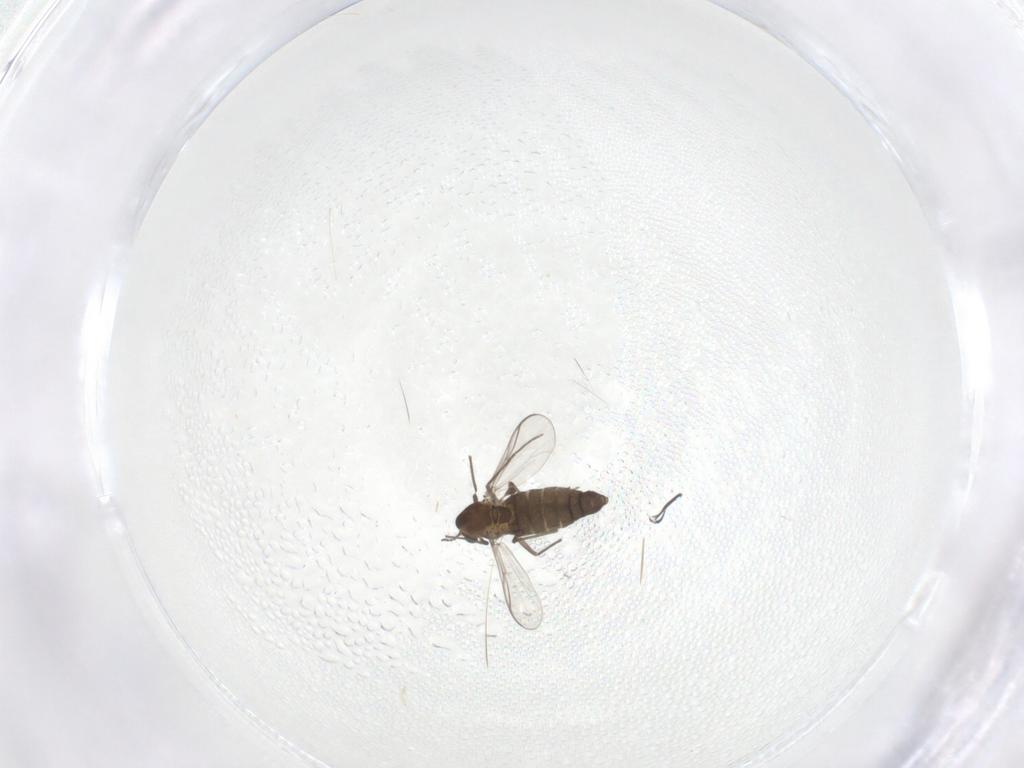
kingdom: Animalia
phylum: Arthropoda
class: Insecta
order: Diptera
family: Chironomidae
